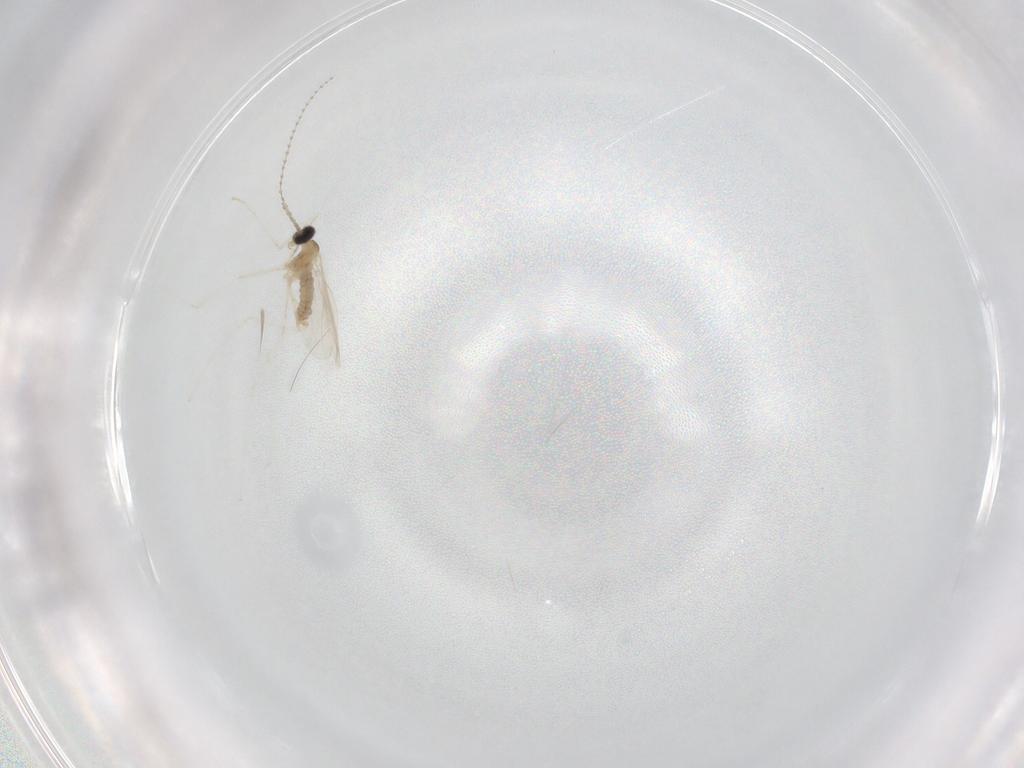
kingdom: Animalia
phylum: Arthropoda
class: Insecta
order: Diptera
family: Cecidomyiidae
